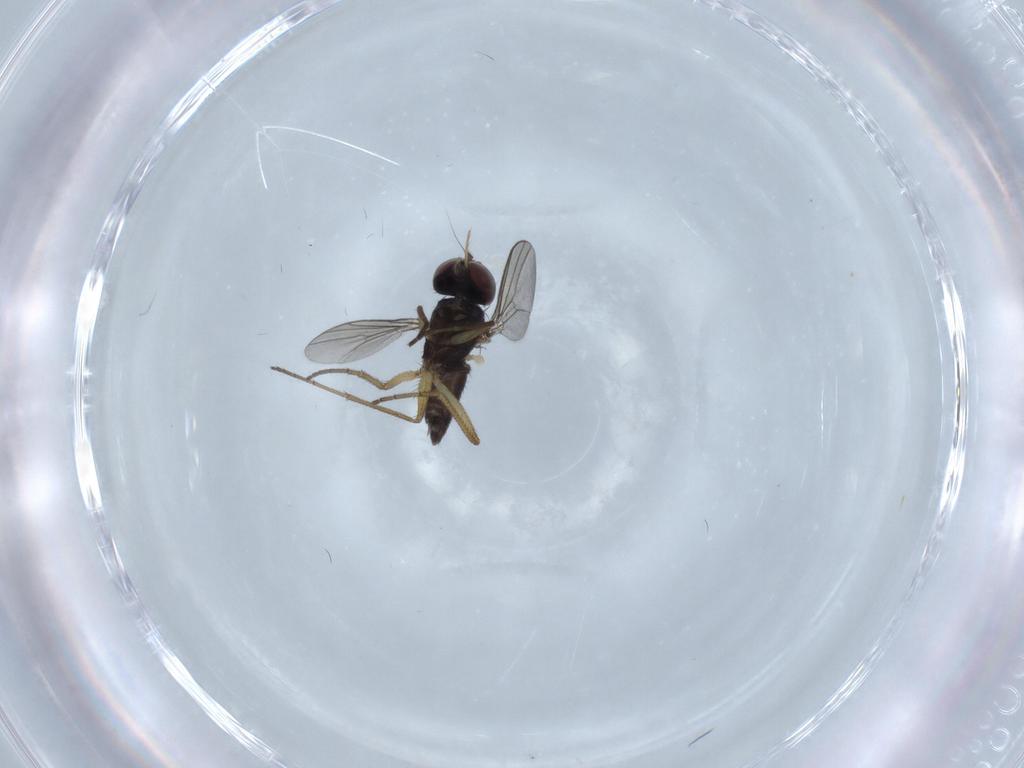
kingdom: Animalia
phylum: Arthropoda
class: Insecta
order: Diptera
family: Dolichopodidae
